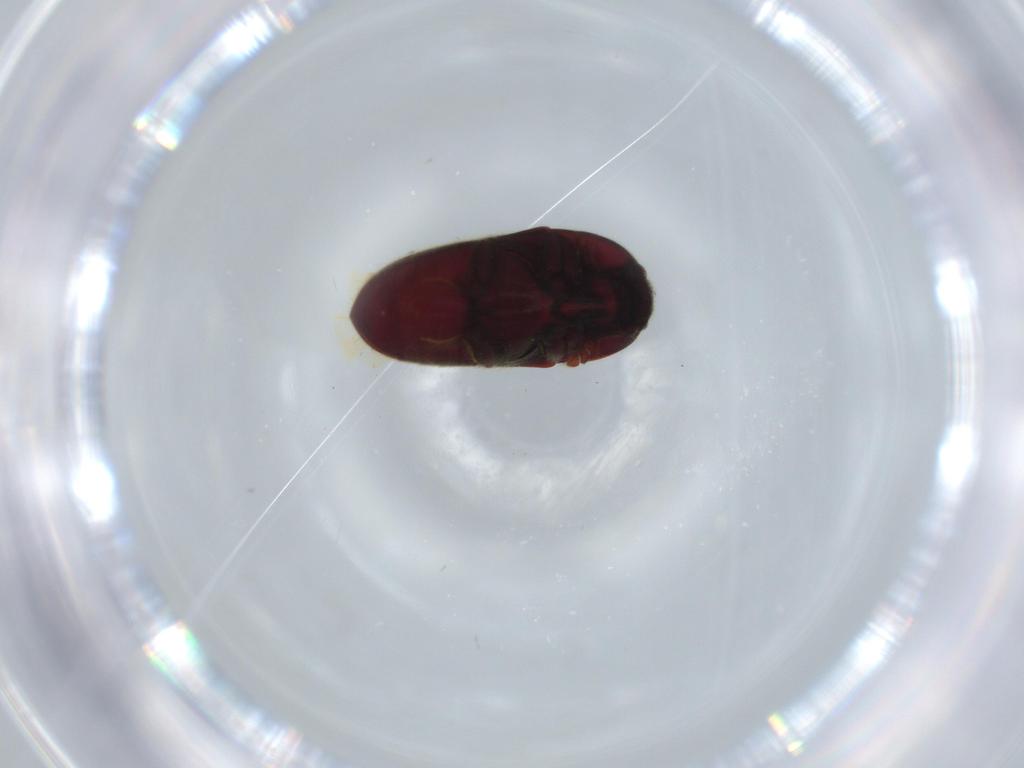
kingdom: Animalia
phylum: Arthropoda
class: Insecta
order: Coleoptera
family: Throscidae
